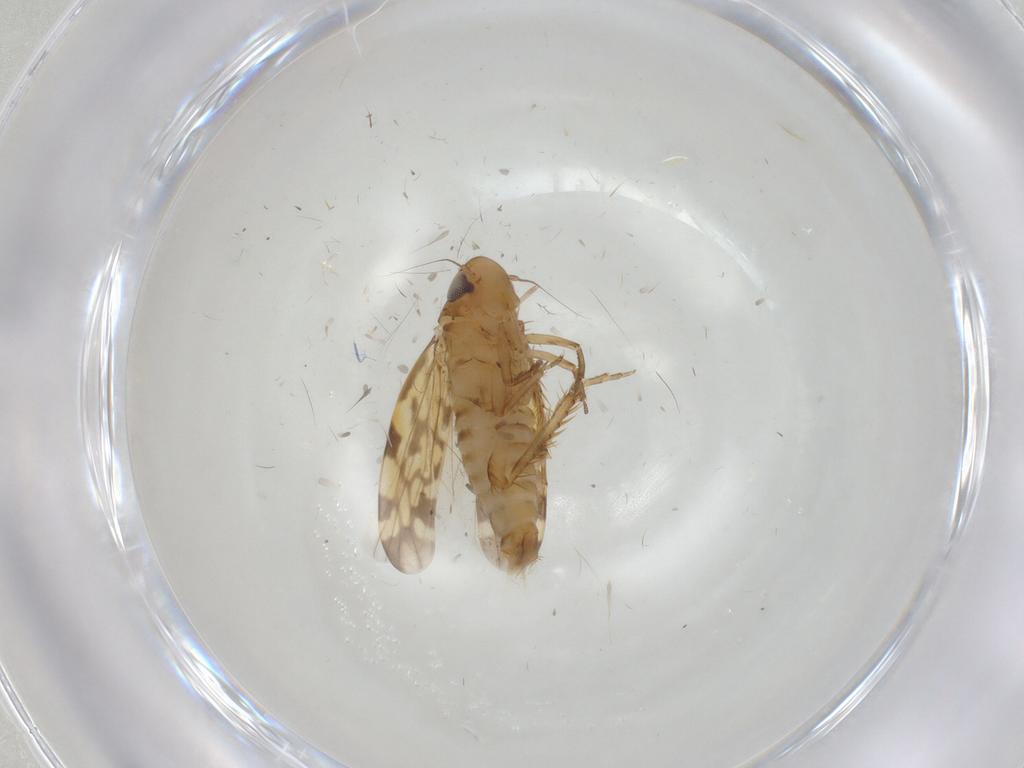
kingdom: Animalia
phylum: Arthropoda
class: Insecta
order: Hemiptera
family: Cicadellidae
